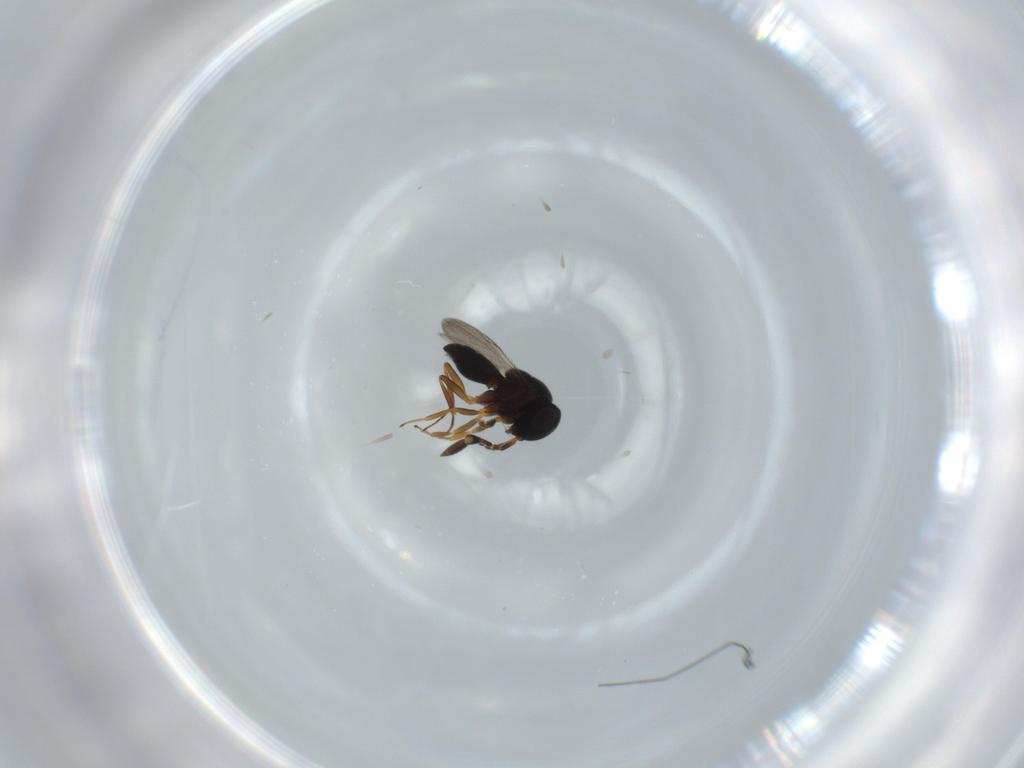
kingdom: Animalia
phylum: Arthropoda
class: Insecta
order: Hymenoptera
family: Scelionidae
